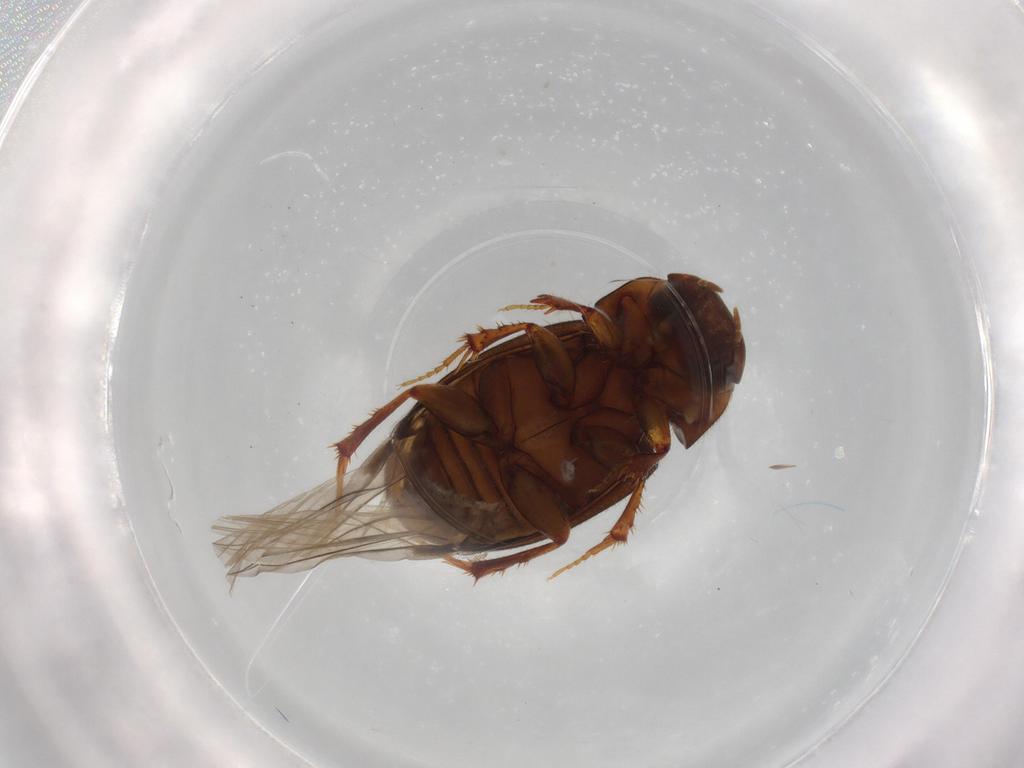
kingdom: Animalia
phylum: Arthropoda
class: Insecta
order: Coleoptera
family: Scarabaeidae
